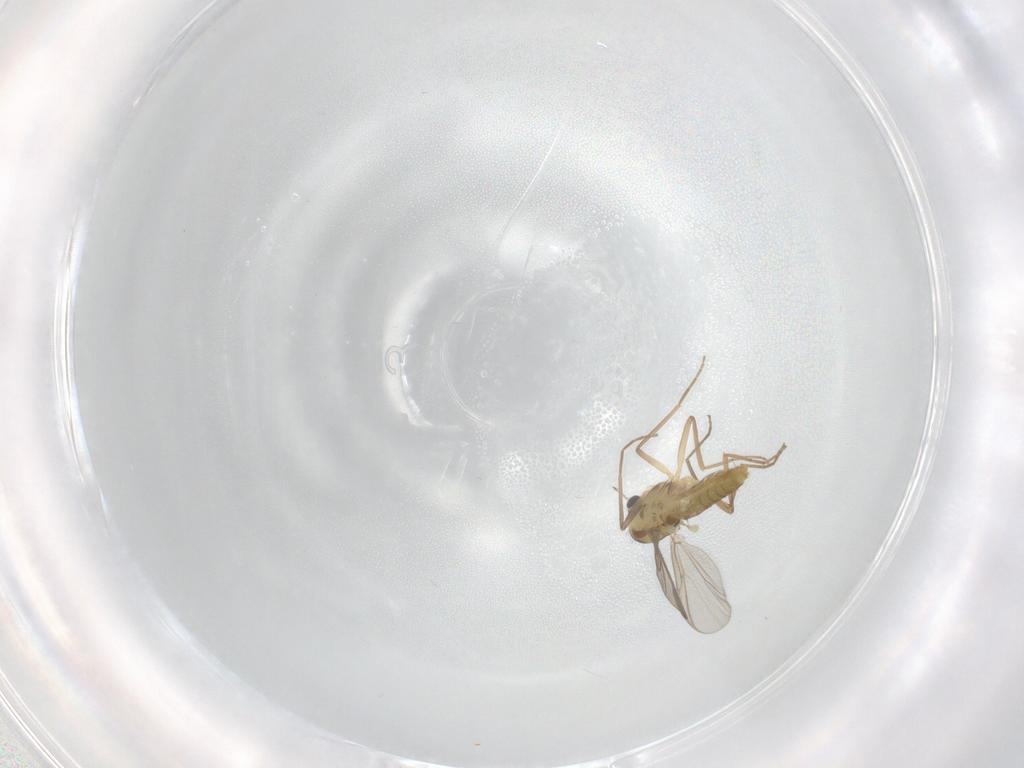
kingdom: Animalia
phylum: Arthropoda
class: Insecta
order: Diptera
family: Chironomidae
